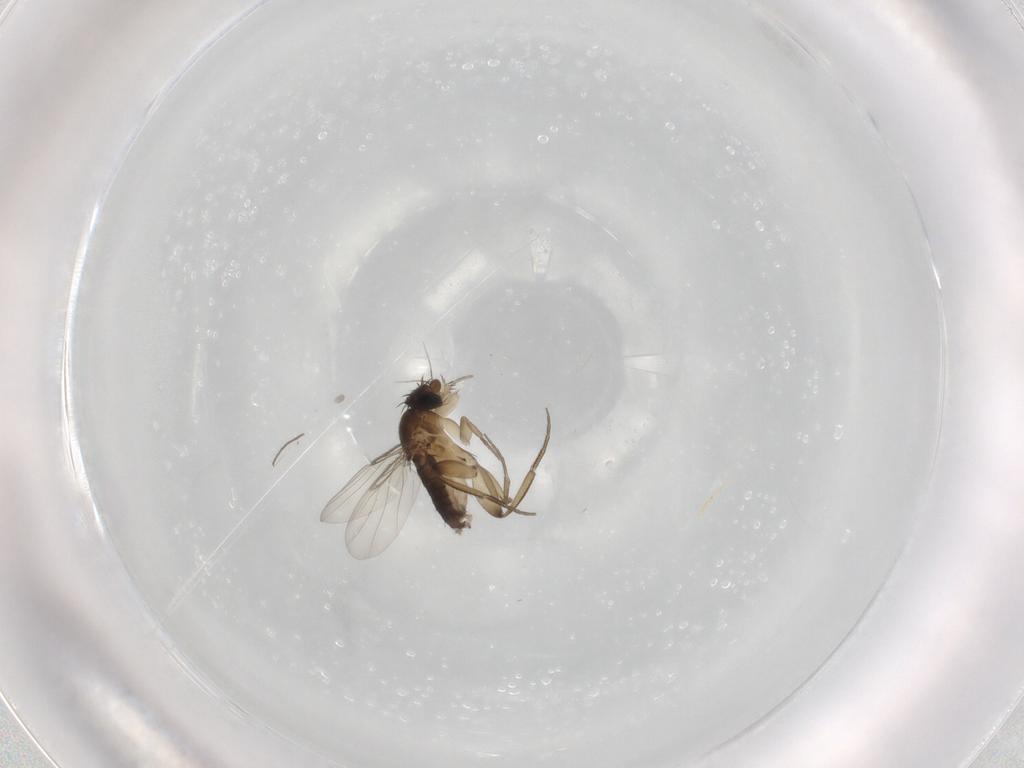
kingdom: Animalia
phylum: Arthropoda
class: Insecta
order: Diptera
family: Phoridae
